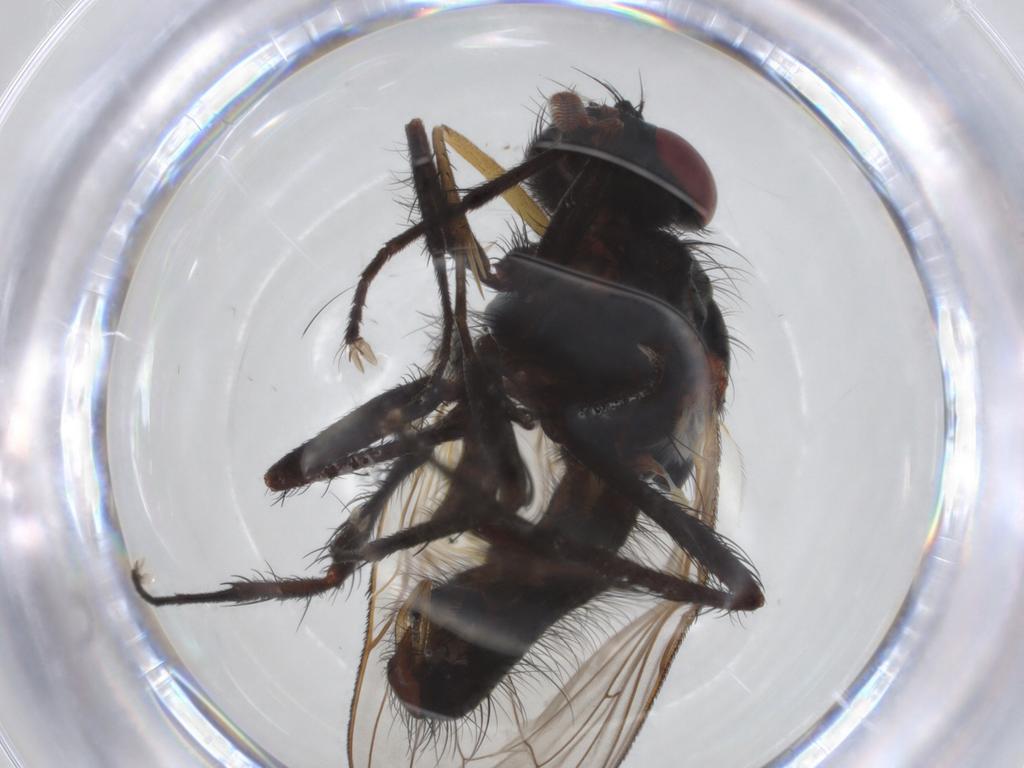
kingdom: Animalia
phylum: Arthropoda
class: Insecta
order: Diptera
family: Anthomyiidae
